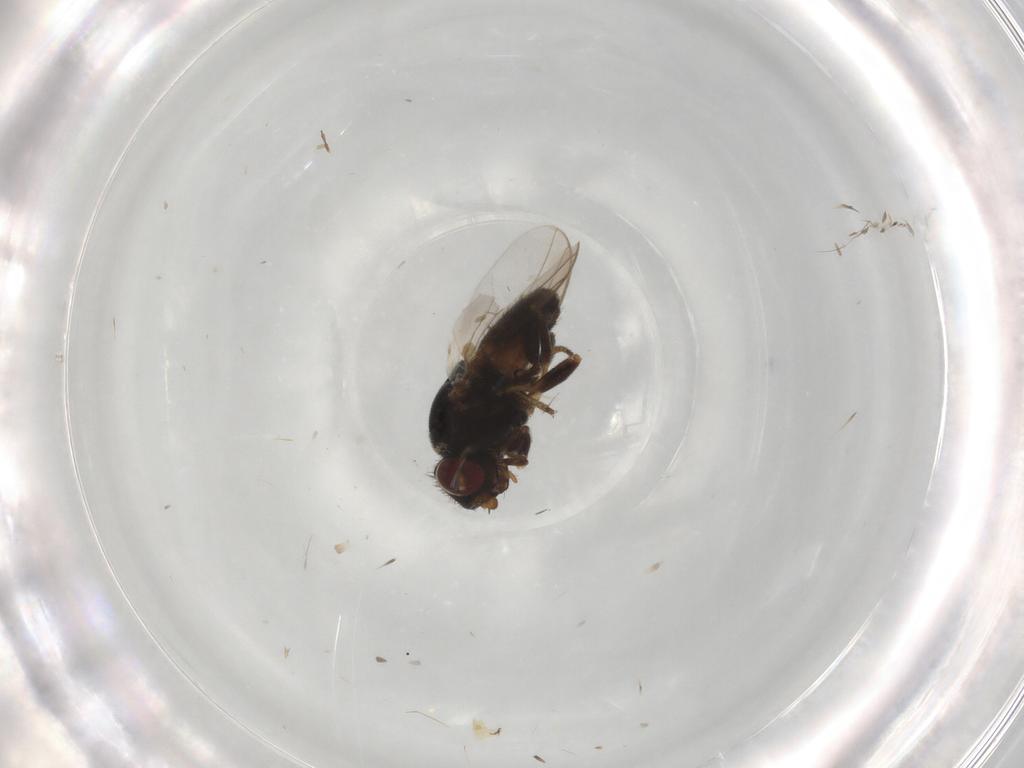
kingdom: Animalia
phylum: Arthropoda
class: Insecta
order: Diptera
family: Chloropidae
